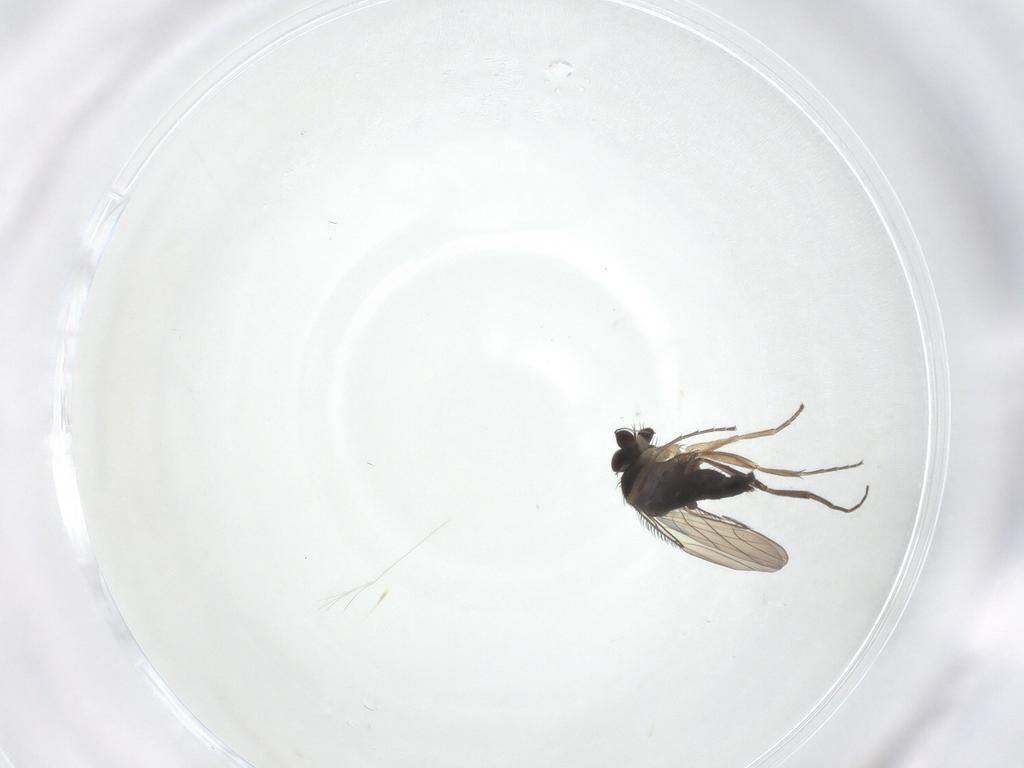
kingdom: Animalia
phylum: Arthropoda
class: Insecta
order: Diptera
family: Phoridae
